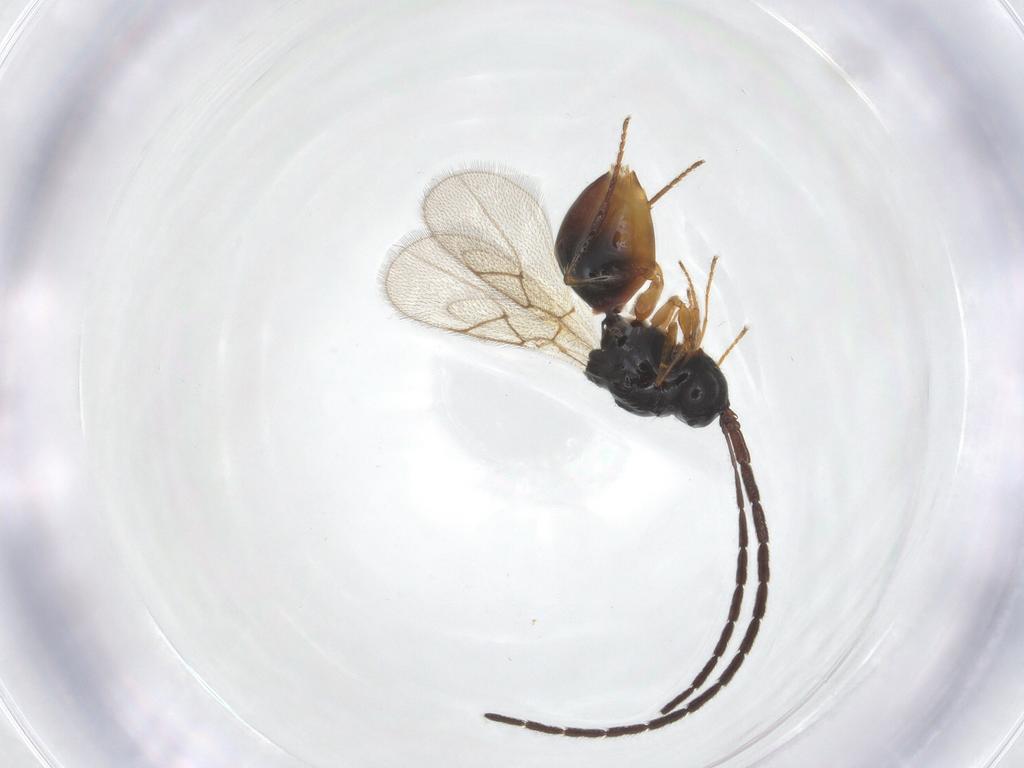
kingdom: Animalia
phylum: Arthropoda
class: Insecta
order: Hymenoptera
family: Figitidae
